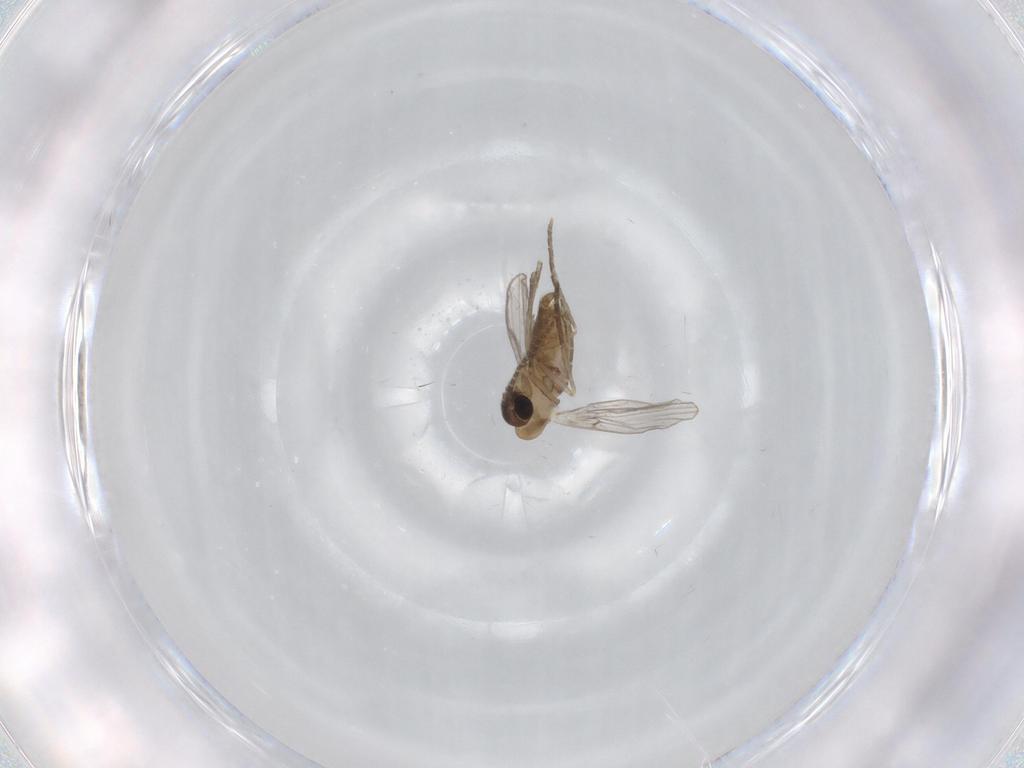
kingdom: Animalia
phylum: Arthropoda
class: Insecta
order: Diptera
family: Psychodidae
